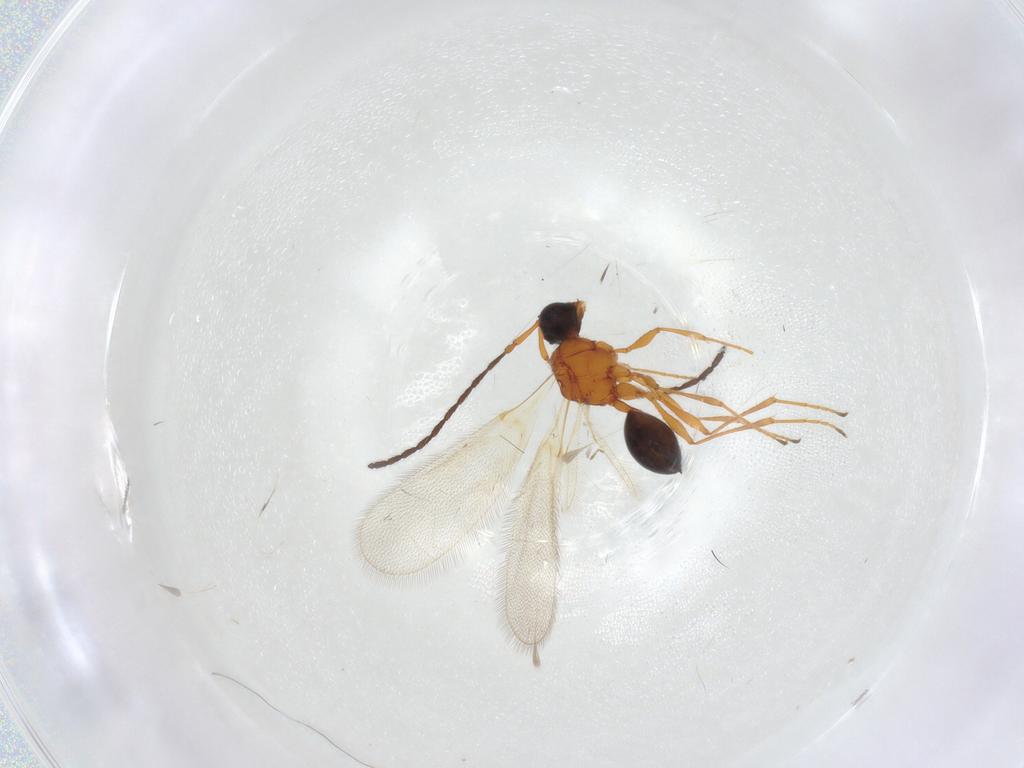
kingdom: Animalia
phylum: Arthropoda
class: Insecta
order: Hymenoptera
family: Diapriidae
